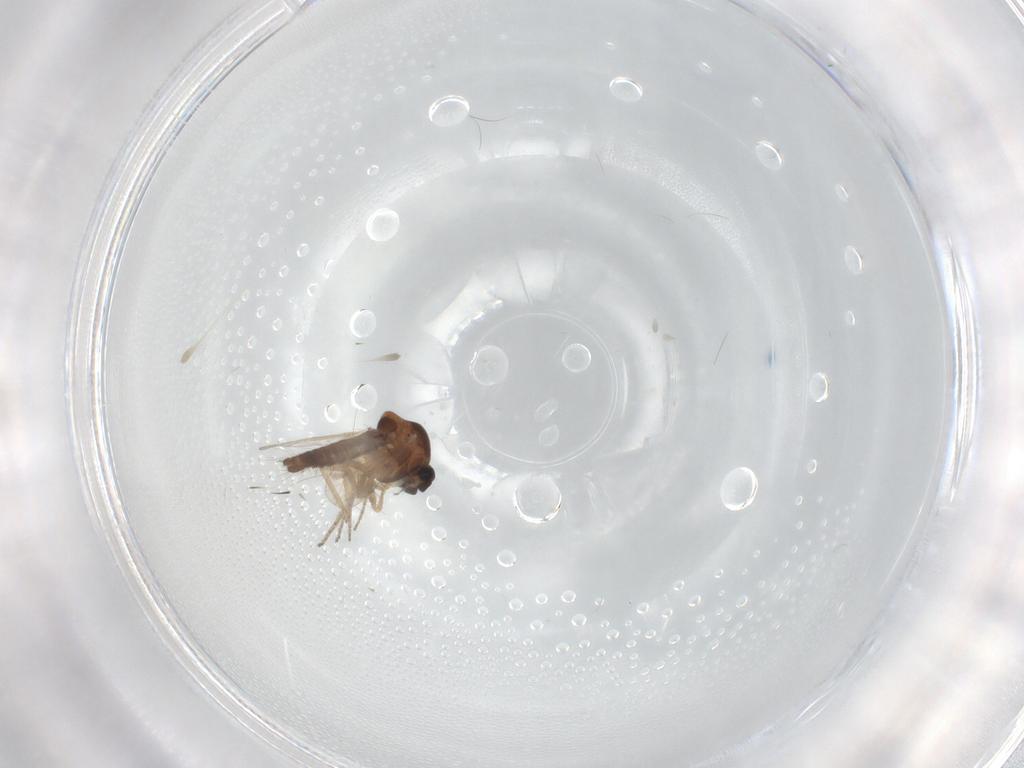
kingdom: Animalia
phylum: Arthropoda
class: Insecta
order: Diptera
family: Ceratopogonidae
